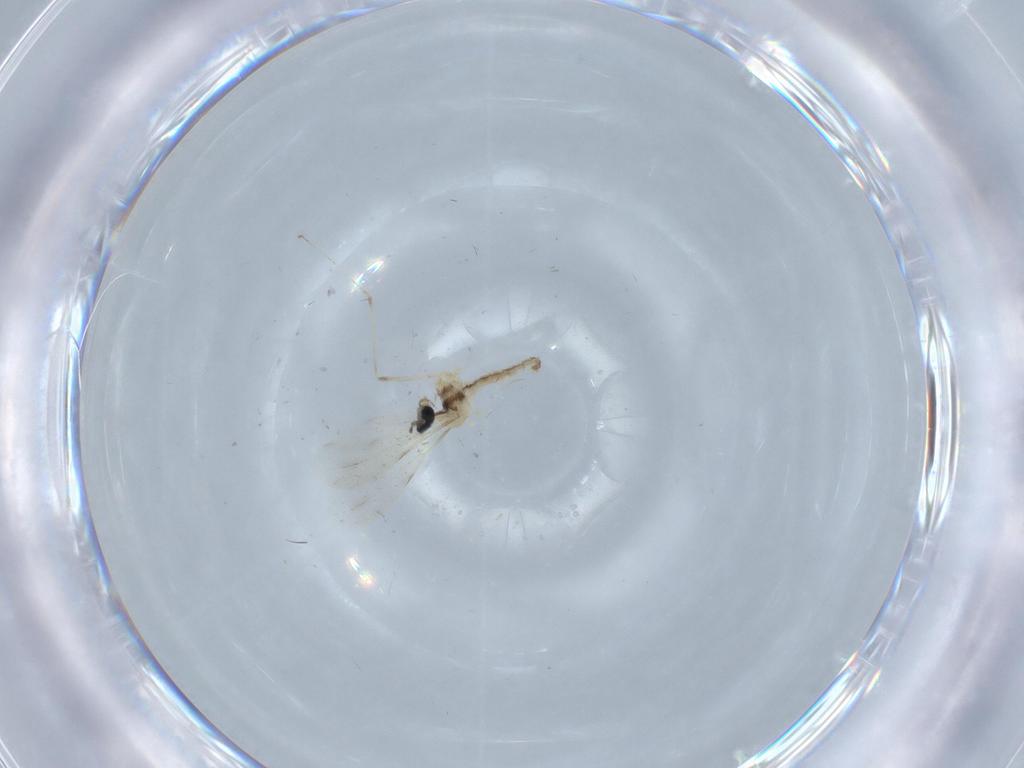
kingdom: Animalia
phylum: Arthropoda
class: Insecta
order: Diptera
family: Cecidomyiidae
